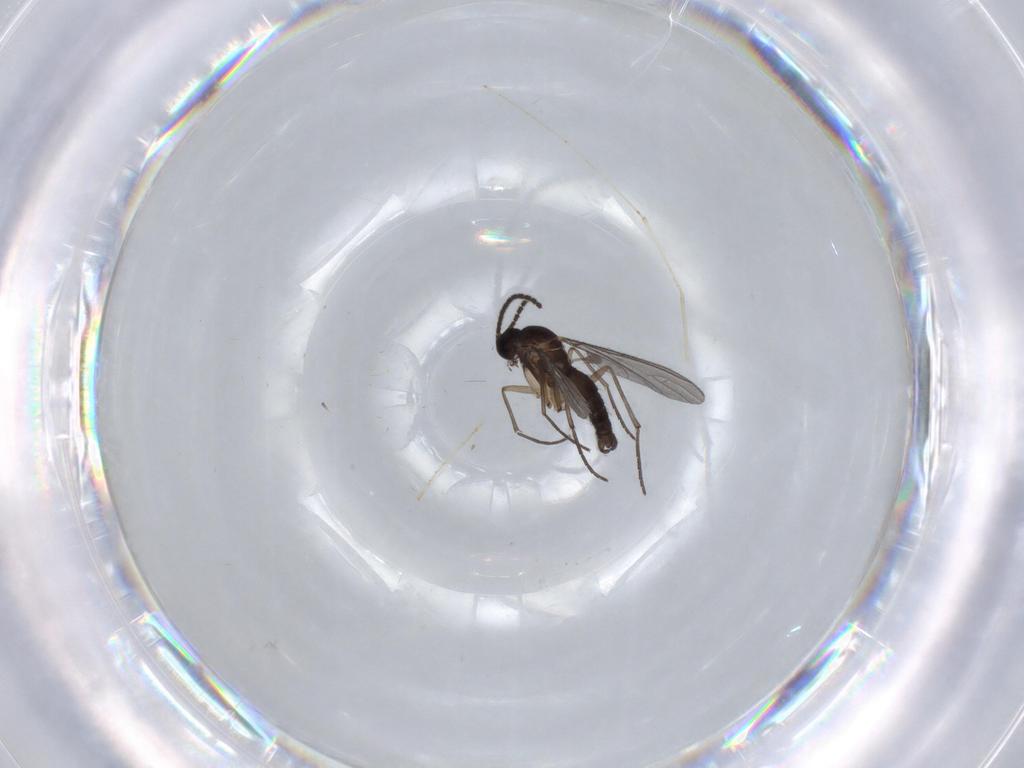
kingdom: Animalia
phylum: Arthropoda
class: Insecta
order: Diptera
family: Sciaridae
